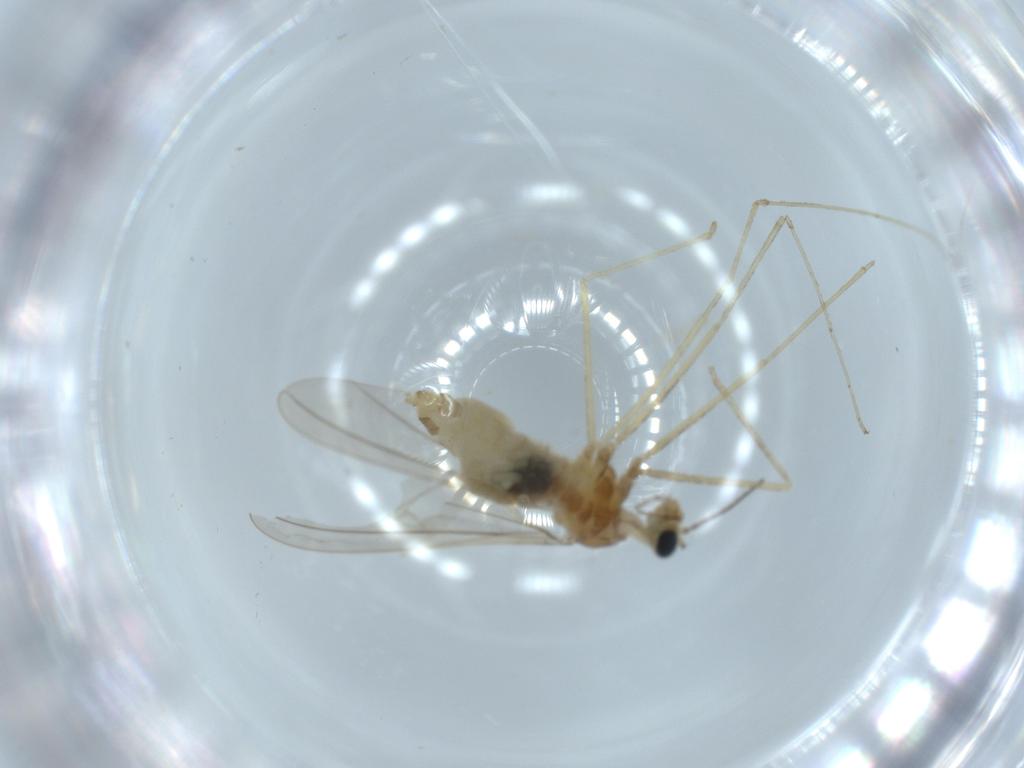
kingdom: Animalia
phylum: Arthropoda
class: Insecta
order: Diptera
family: Cecidomyiidae
